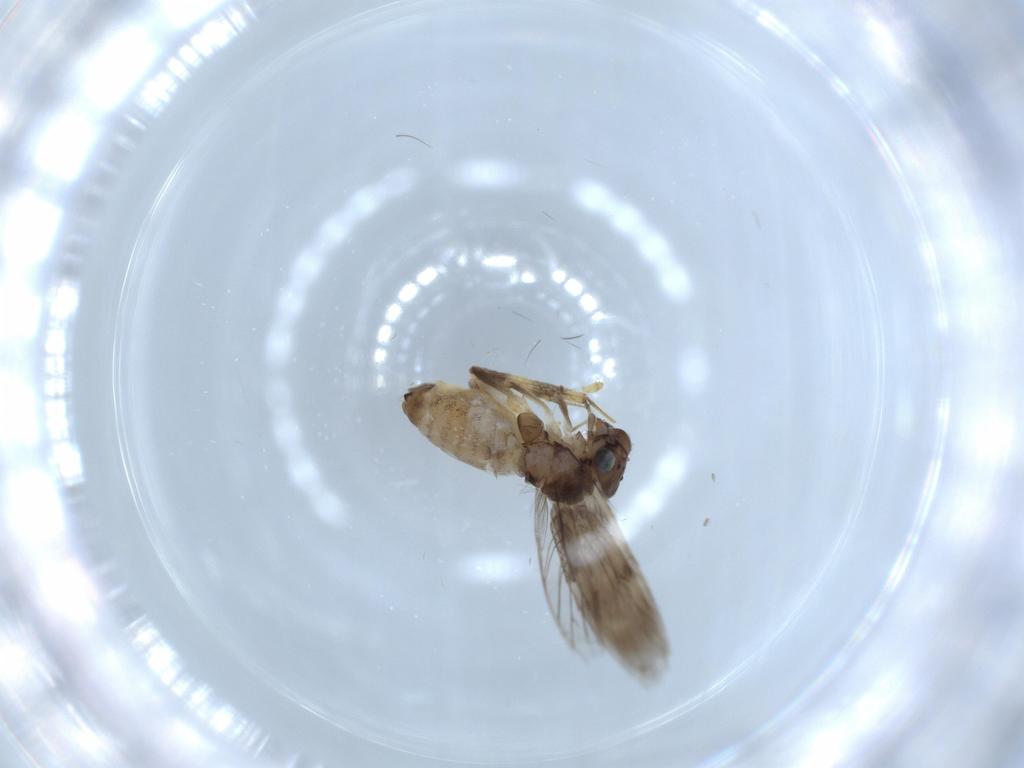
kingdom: Animalia
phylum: Arthropoda
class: Insecta
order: Psocodea
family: Lepidopsocidae
